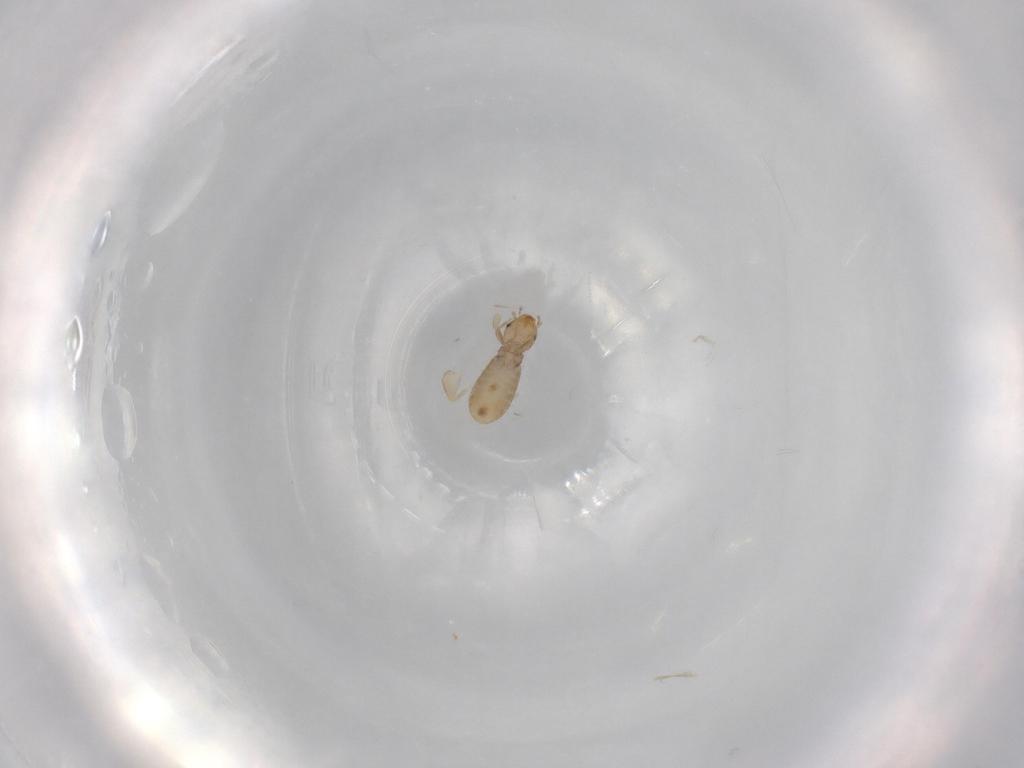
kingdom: Animalia
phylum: Arthropoda
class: Insecta
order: Psocodea
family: Liposcelididae
